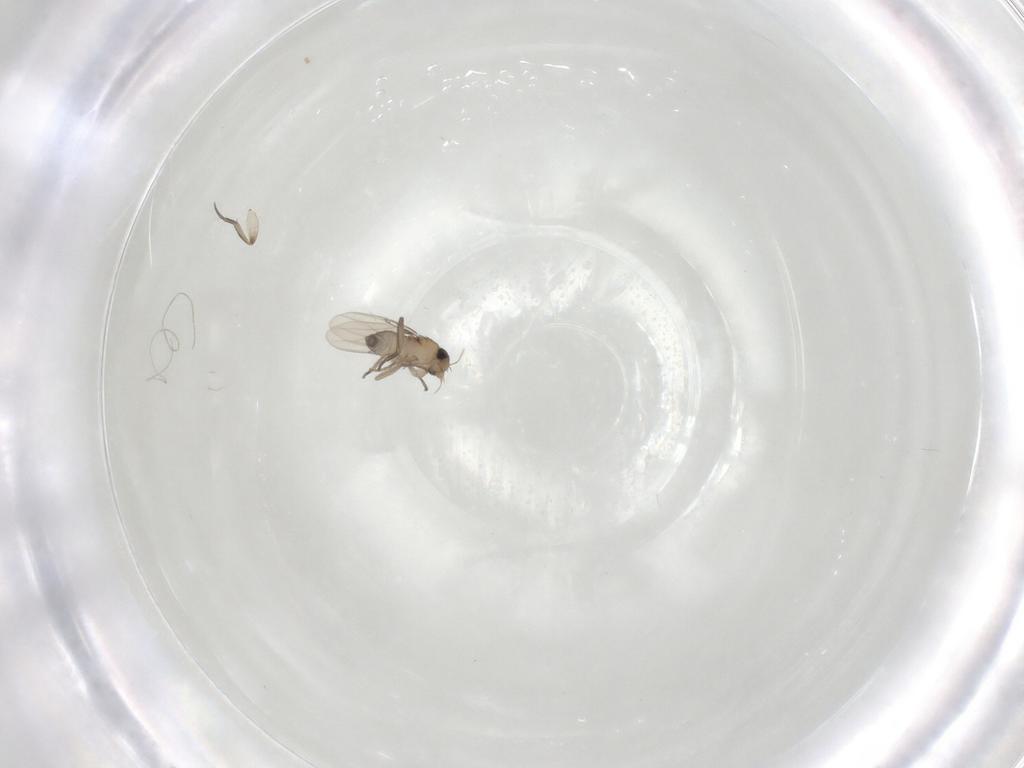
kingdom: Animalia
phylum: Arthropoda
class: Insecta
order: Diptera
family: Phoridae
